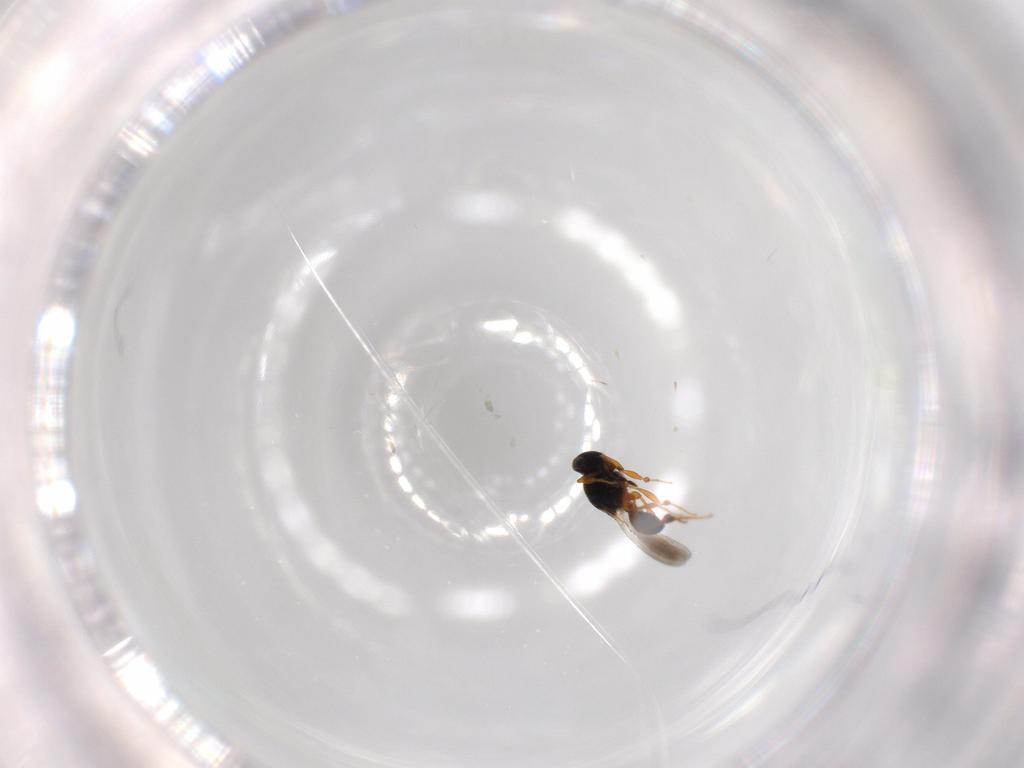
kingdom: Animalia
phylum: Arthropoda
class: Insecta
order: Hymenoptera
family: Platygastridae
